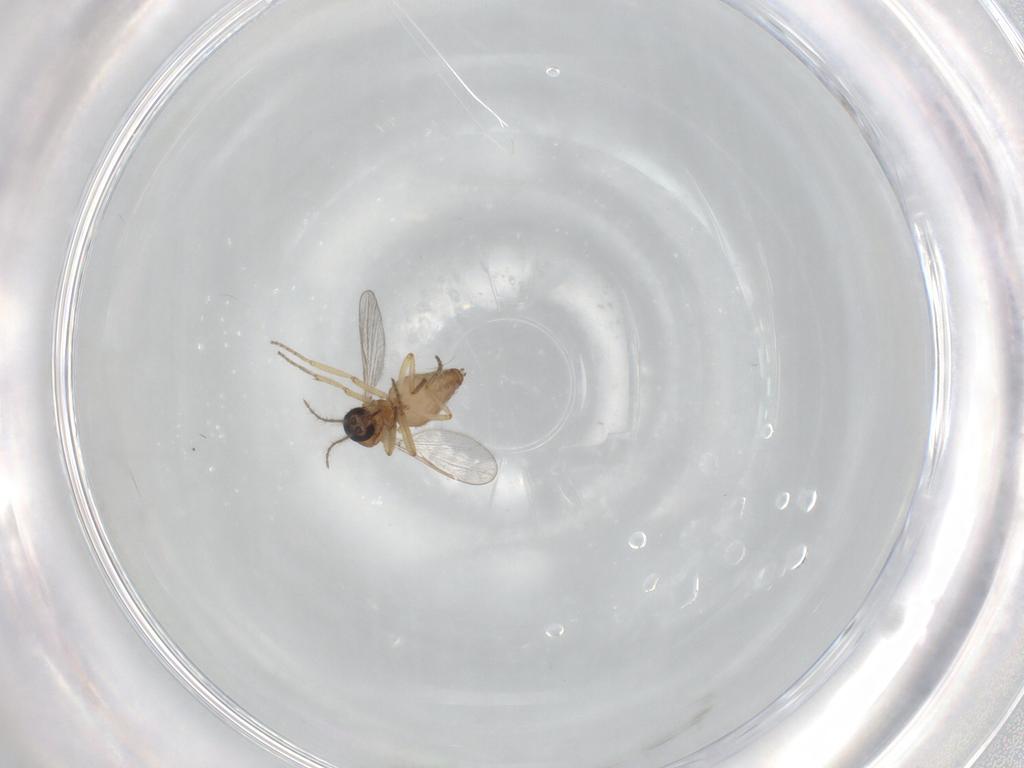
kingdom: Animalia
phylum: Arthropoda
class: Insecta
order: Diptera
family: Ceratopogonidae
